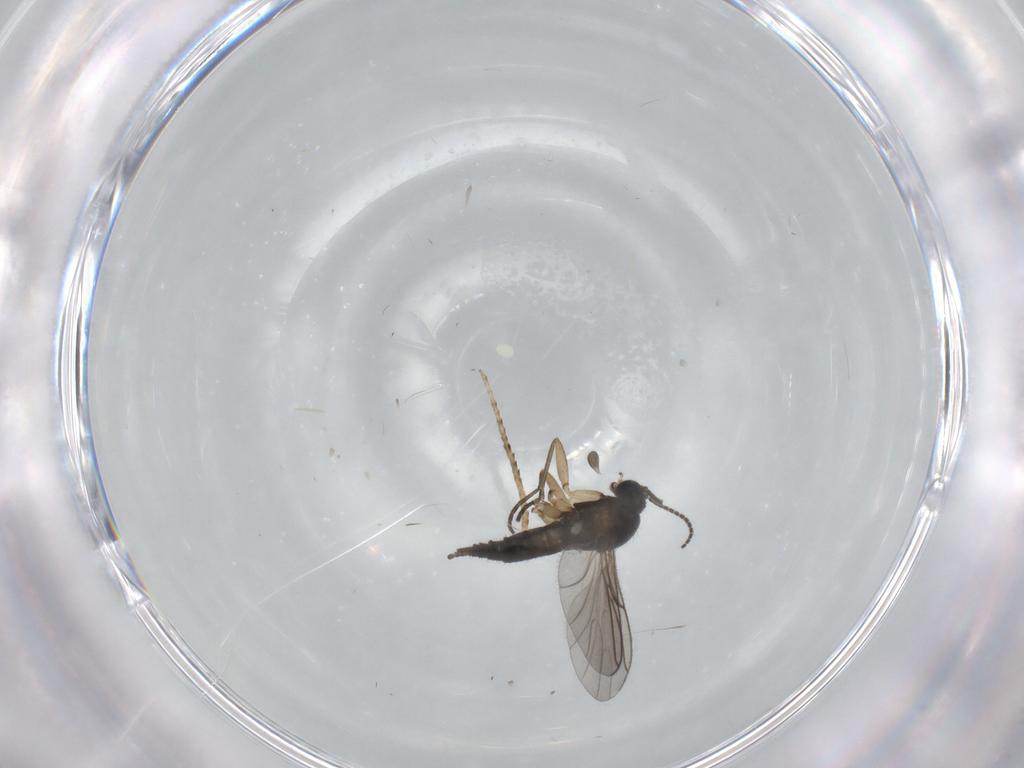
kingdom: Animalia
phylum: Arthropoda
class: Insecta
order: Diptera
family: Sciaridae
